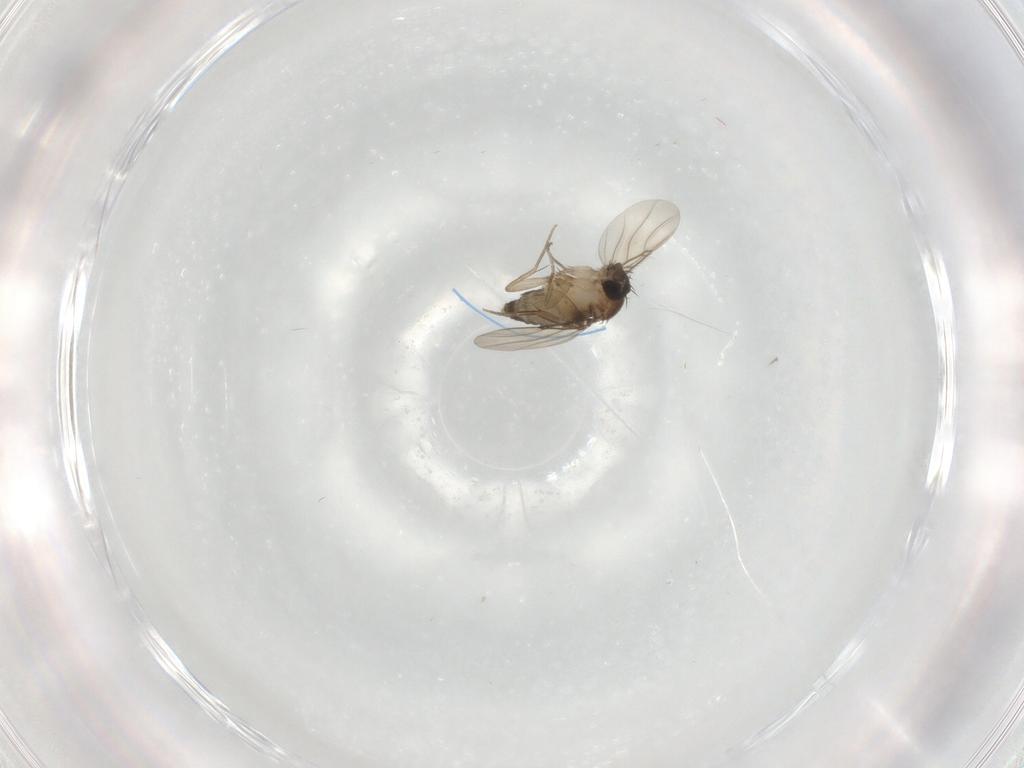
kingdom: Animalia
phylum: Arthropoda
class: Insecta
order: Diptera
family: Phoridae
